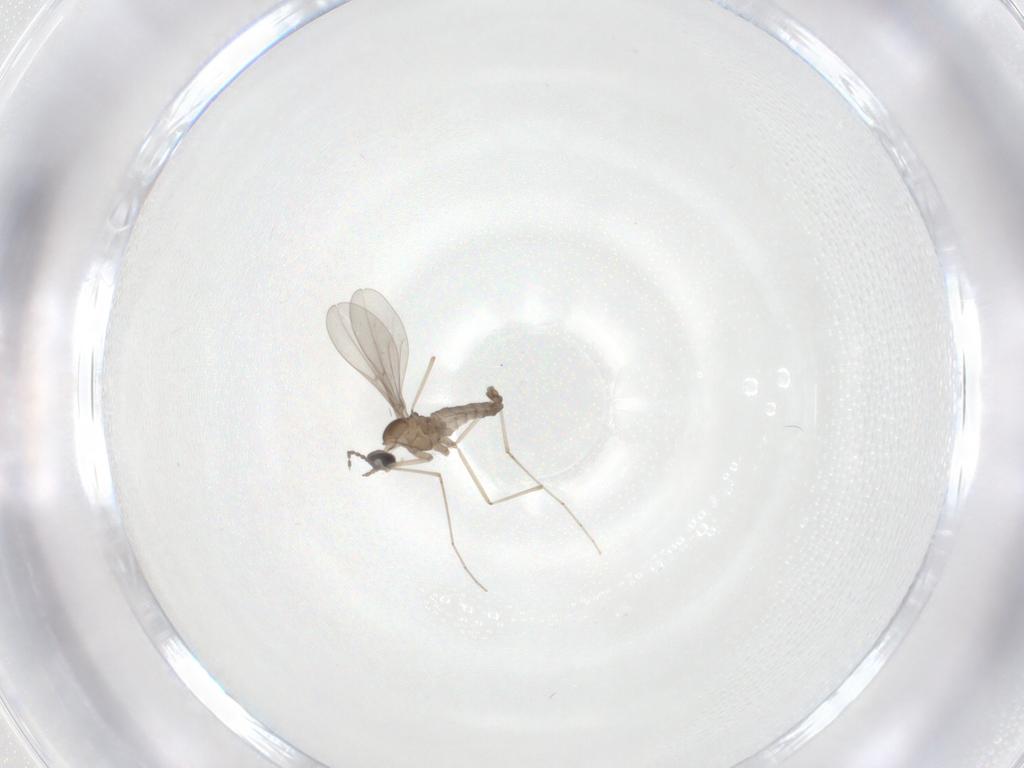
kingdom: Animalia
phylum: Arthropoda
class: Insecta
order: Diptera
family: Cecidomyiidae
